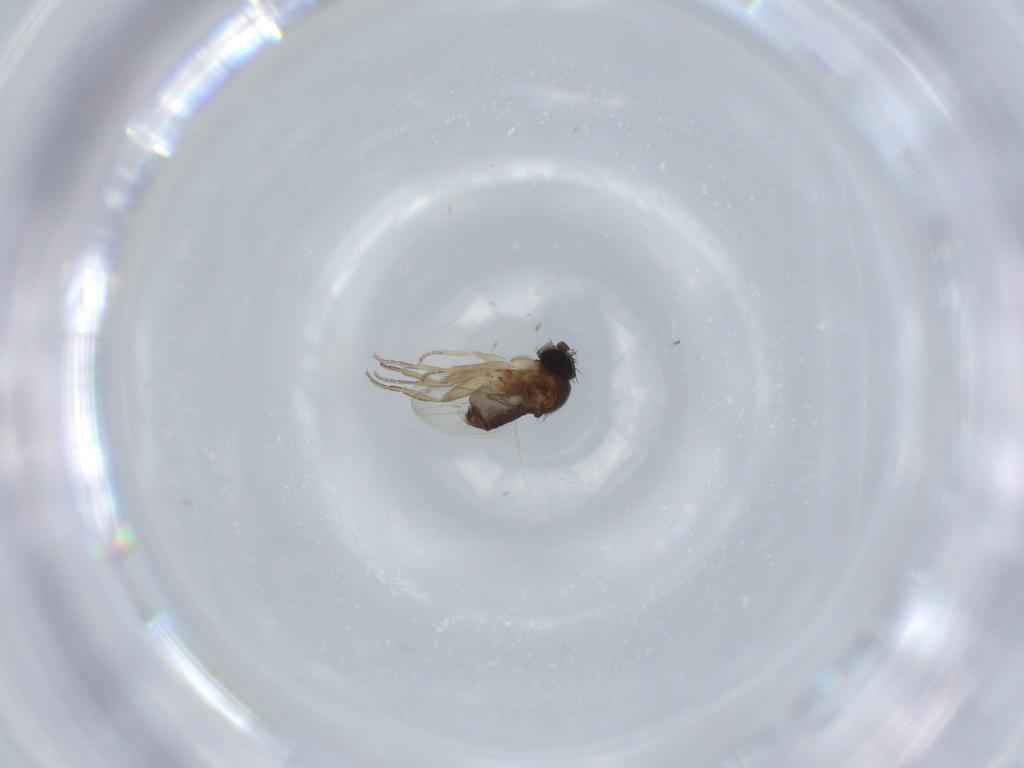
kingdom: Animalia
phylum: Arthropoda
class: Insecta
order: Diptera
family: Phoridae
